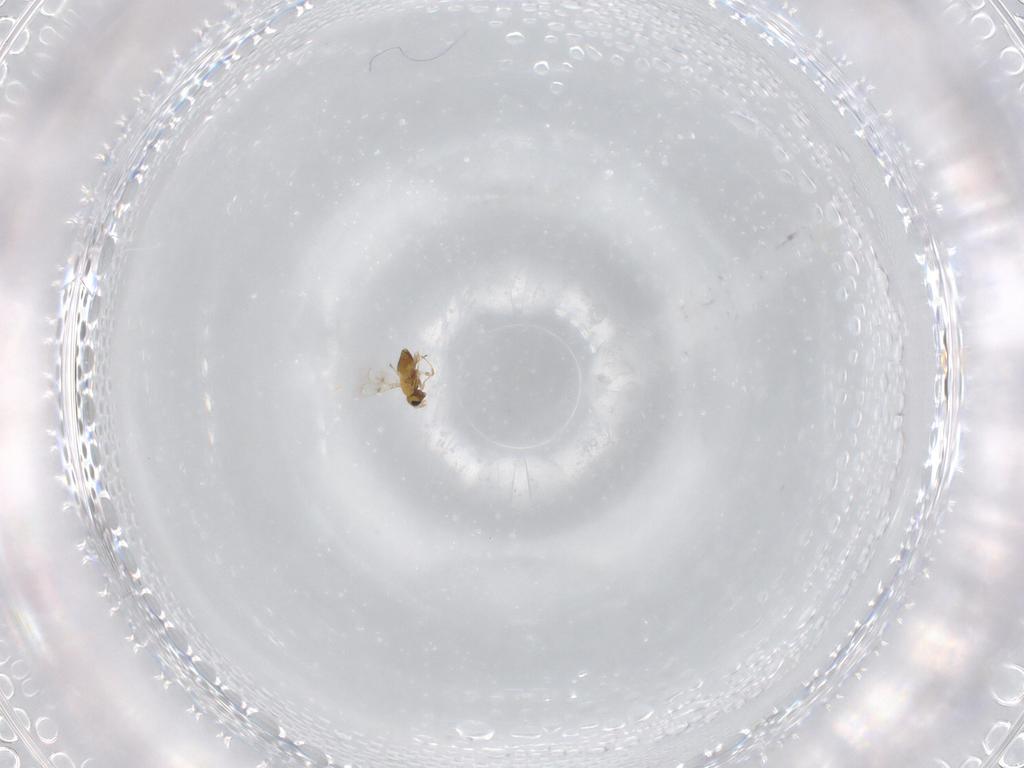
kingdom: Animalia
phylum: Arthropoda
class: Insecta
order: Hymenoptera
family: Trichogrammatidae
